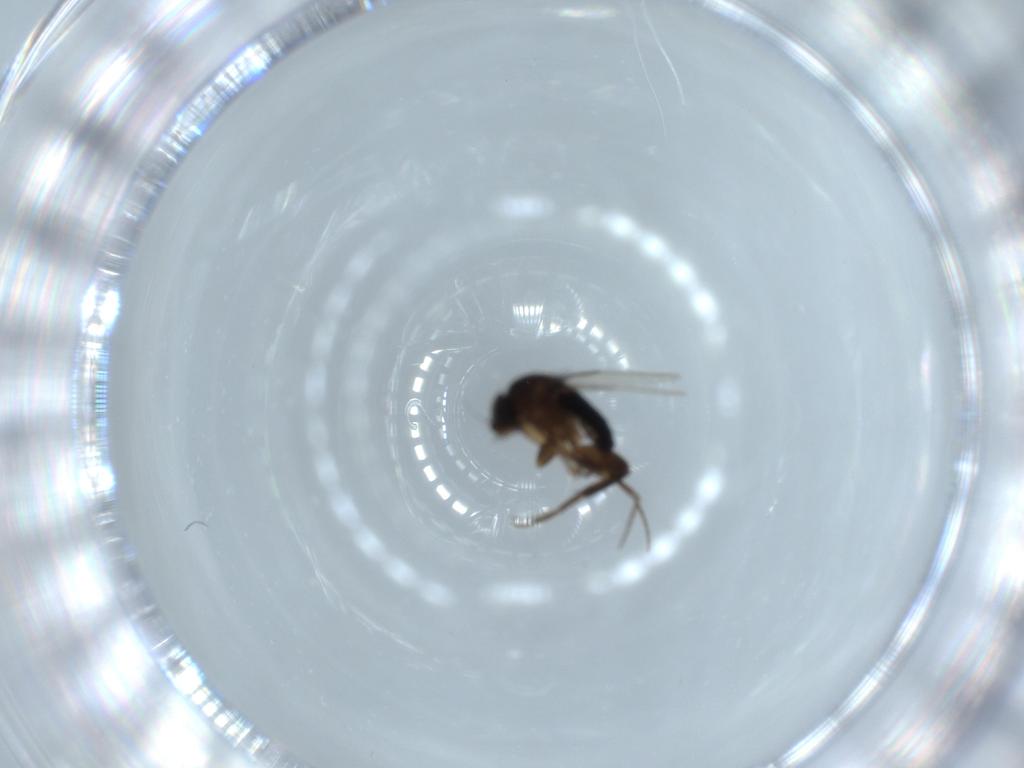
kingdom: Animalia
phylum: Arthropoda
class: Insecta
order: Diptera
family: Phoridae
